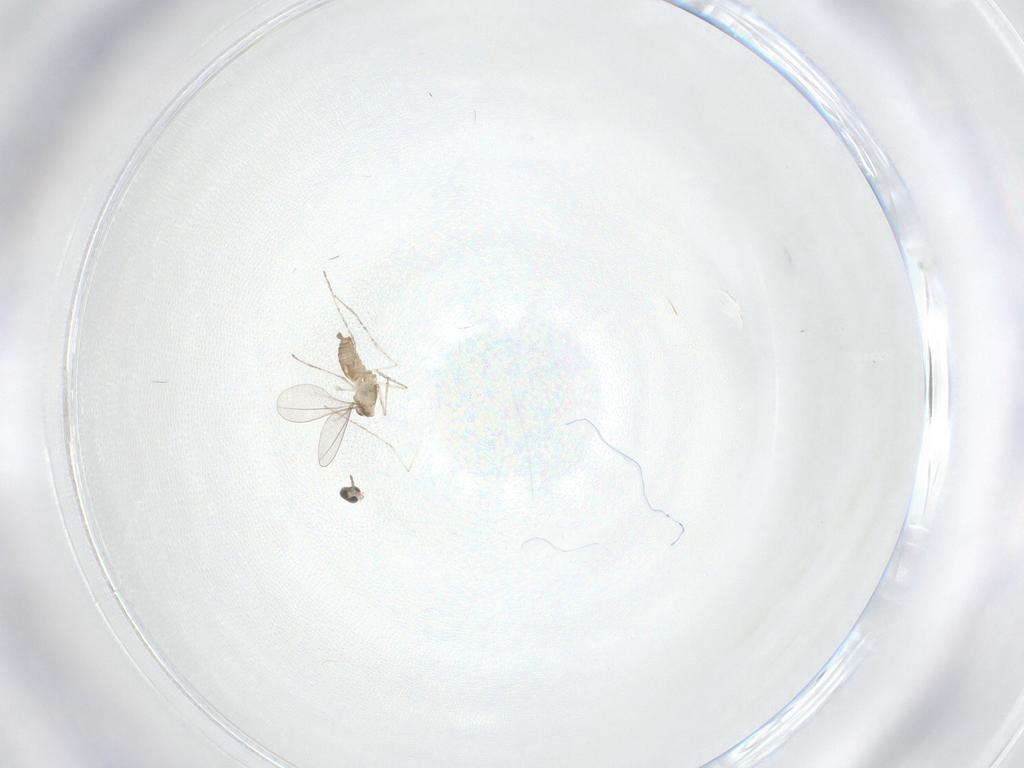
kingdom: Animalia
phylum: Arthropoda
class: Insecta
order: Diptera
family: Cecidomyiidae
